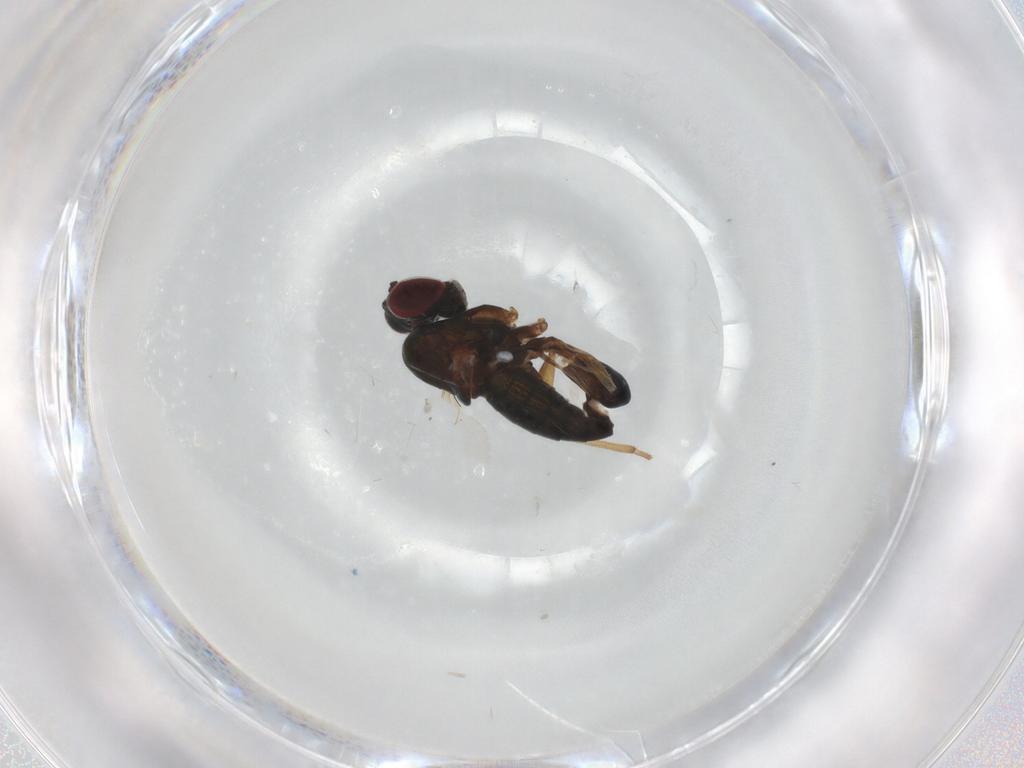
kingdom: Animalia
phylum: Arthropoda
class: Insecta
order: Diptera
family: Dolichopodidae
